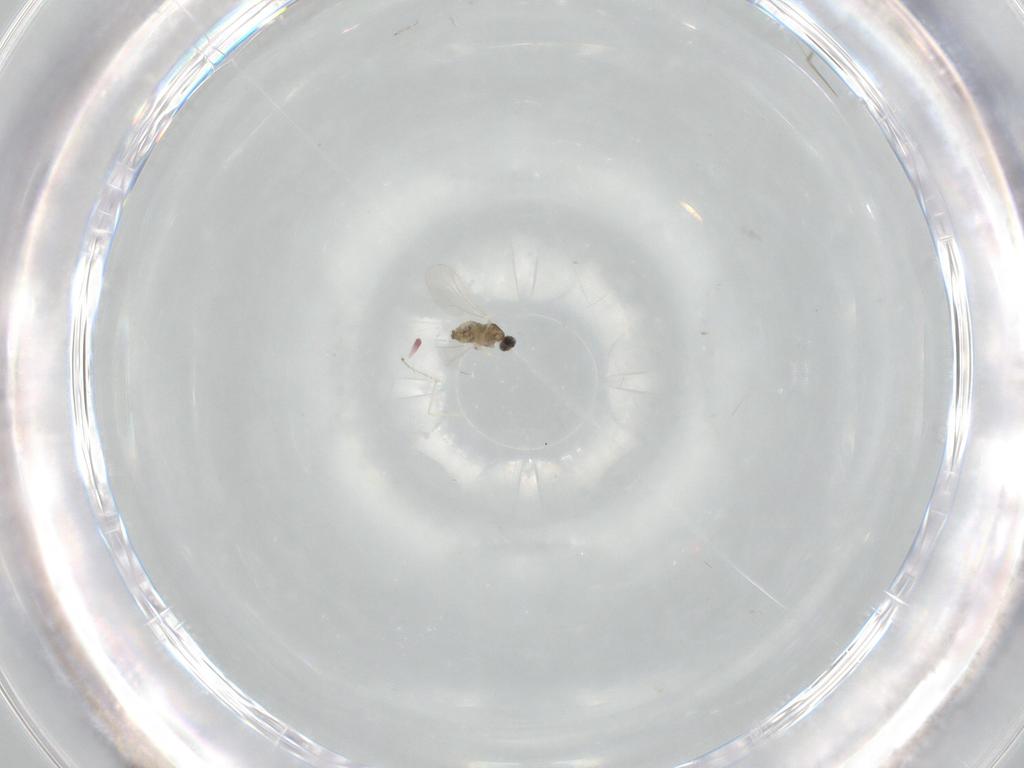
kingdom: Animalia
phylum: Arthropoda
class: Insecta
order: Diptera
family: Cecidomyiidae
